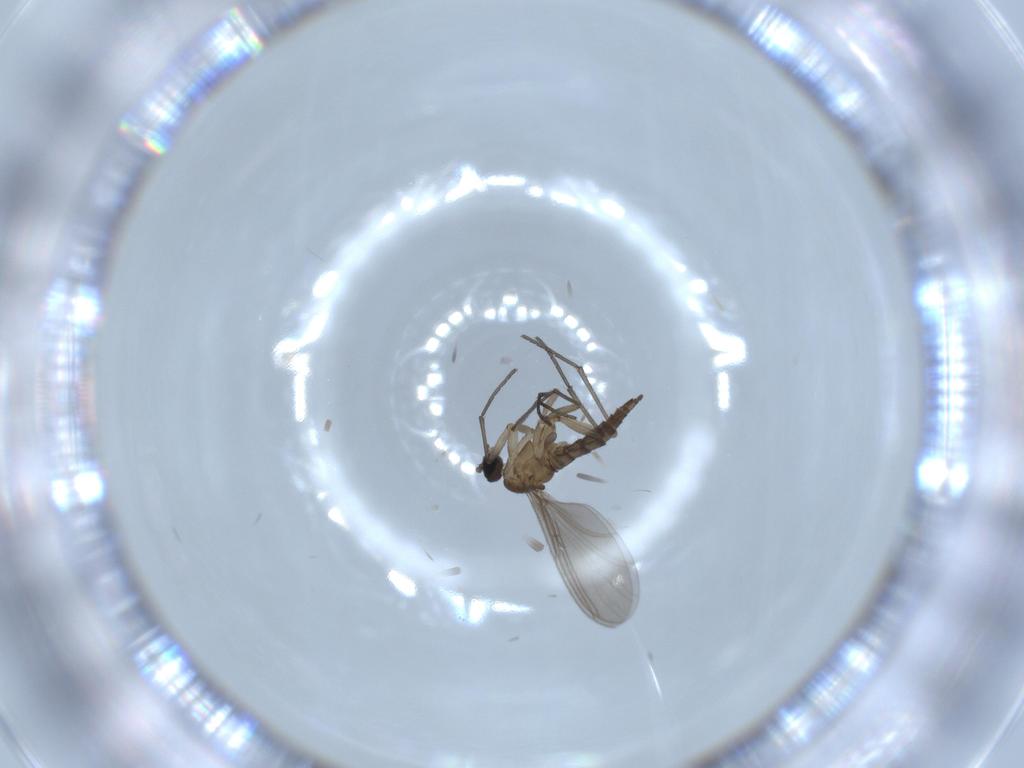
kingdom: Animalia
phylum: Arthropoda
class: Insecta
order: Diptera
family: Sciaridae
